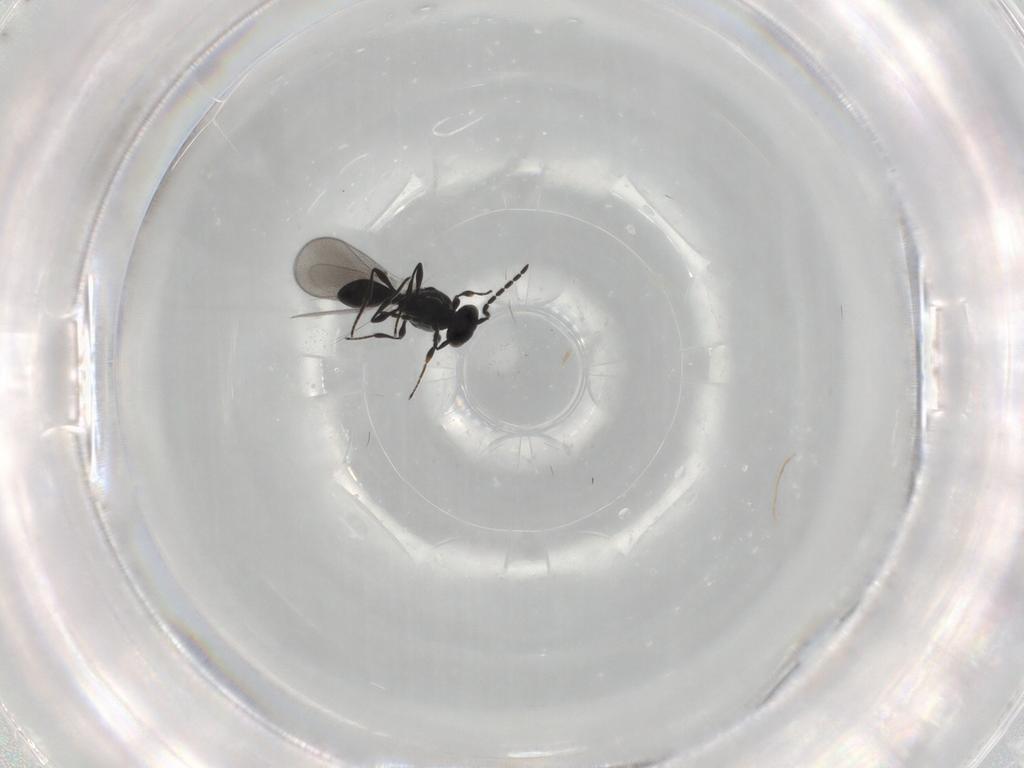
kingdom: Animalia
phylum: Arthropoda
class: Insecta
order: Diptera
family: Mythicomyiidae
